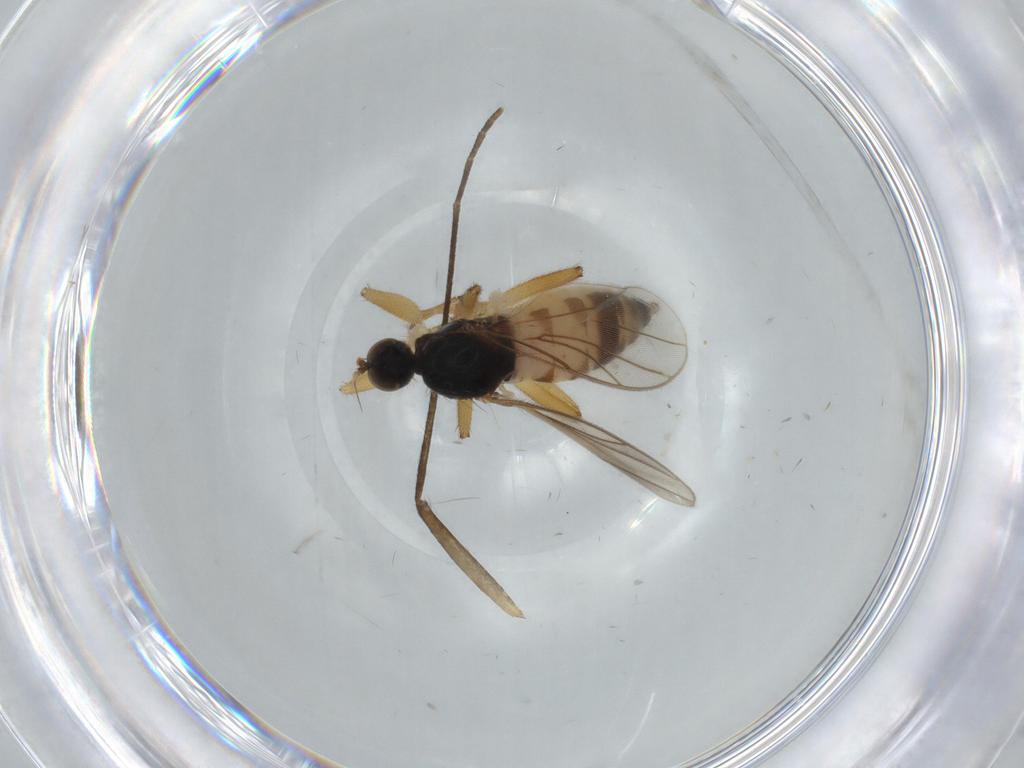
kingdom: Animalia
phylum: Arthropoda
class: Insecta
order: Diptera
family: Hybotidae
